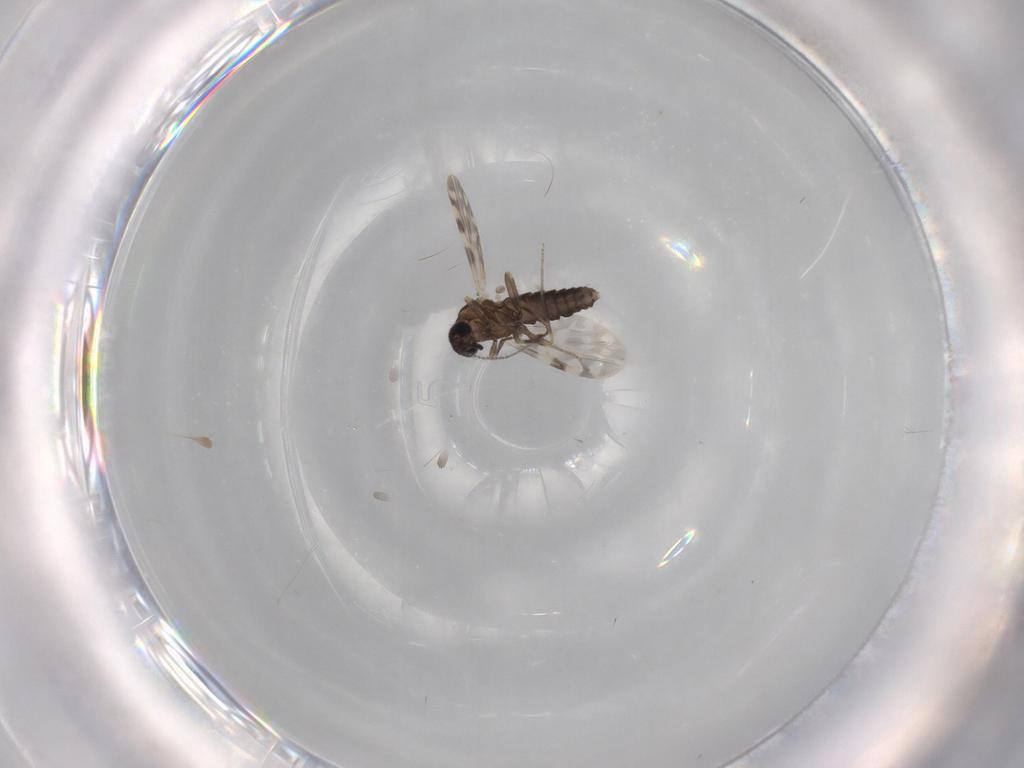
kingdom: Animalia
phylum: Arthropoda
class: Insecta
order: Diptera
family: Ceratopogonidae
